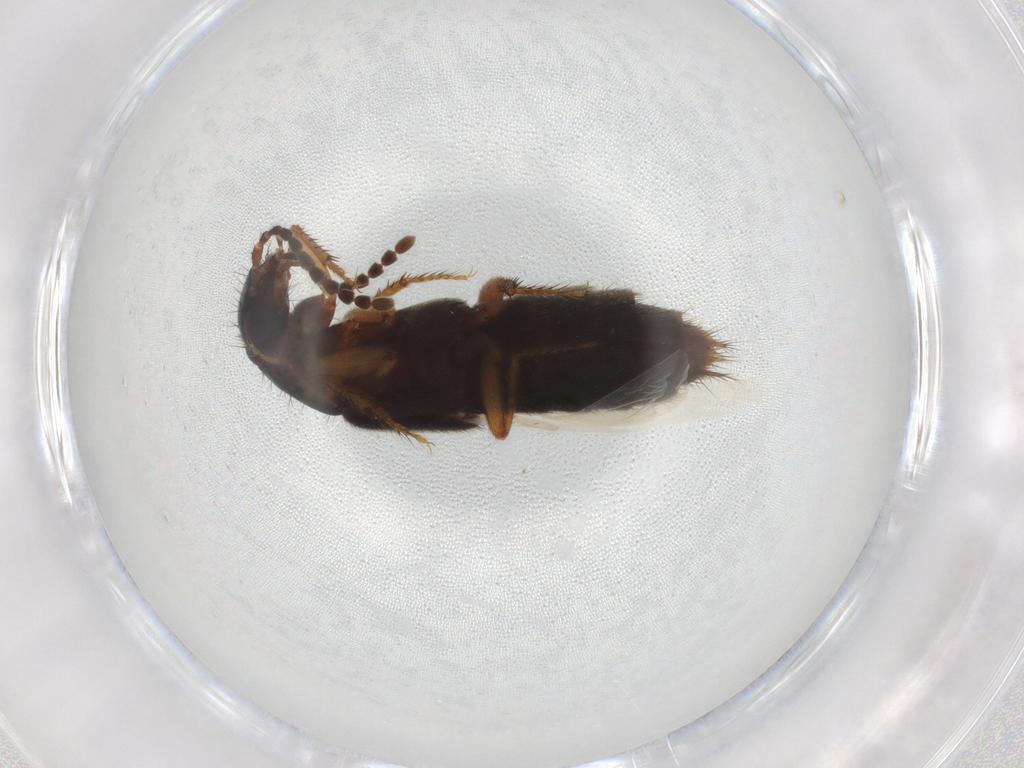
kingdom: Animalia
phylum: Arthropoda
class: Insecta
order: Coleoptera
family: Staphylinidae
